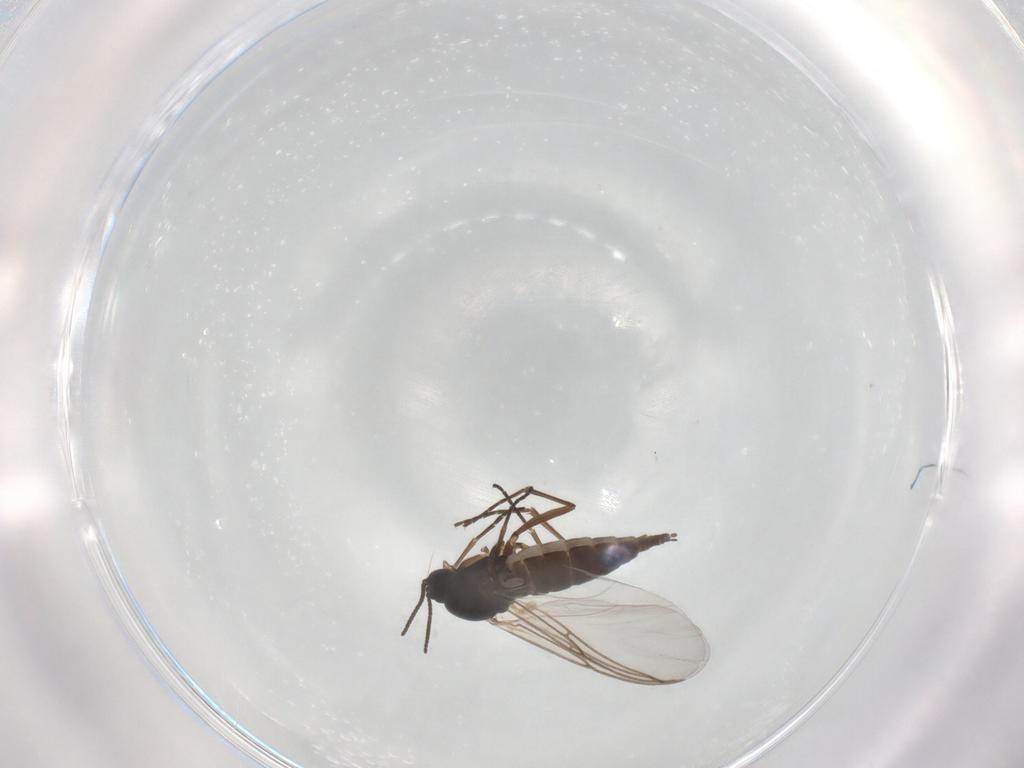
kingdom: Animalia
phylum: Arthropoda
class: Insecta
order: Diptera
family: Sciaridae
